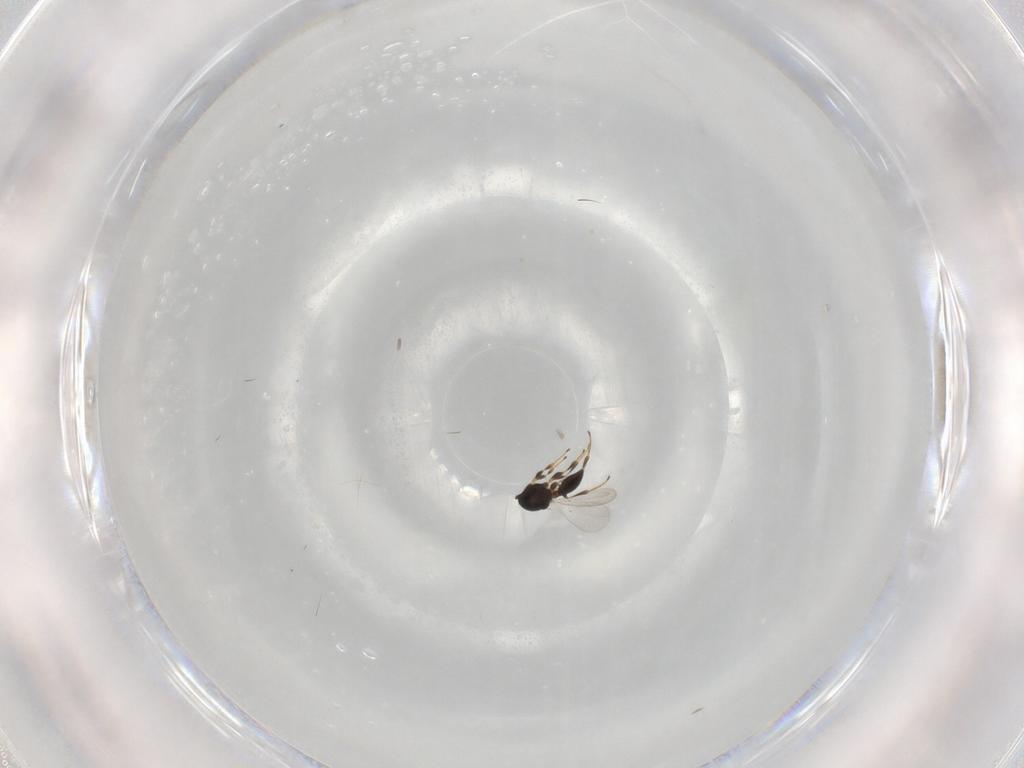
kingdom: Animalia
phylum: Arthropoda
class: Insecta
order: Hymenoptera
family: Platygastridae
